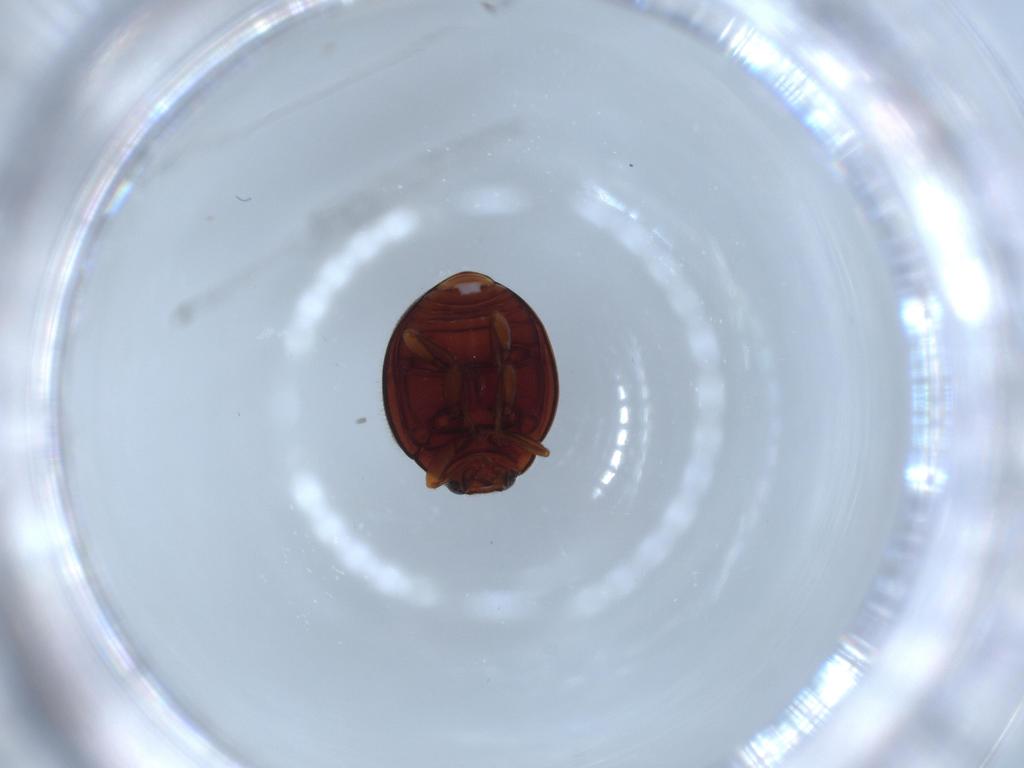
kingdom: Animalia
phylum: Arthropoda
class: Insecta
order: Coleoptera
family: Coccinellidae
